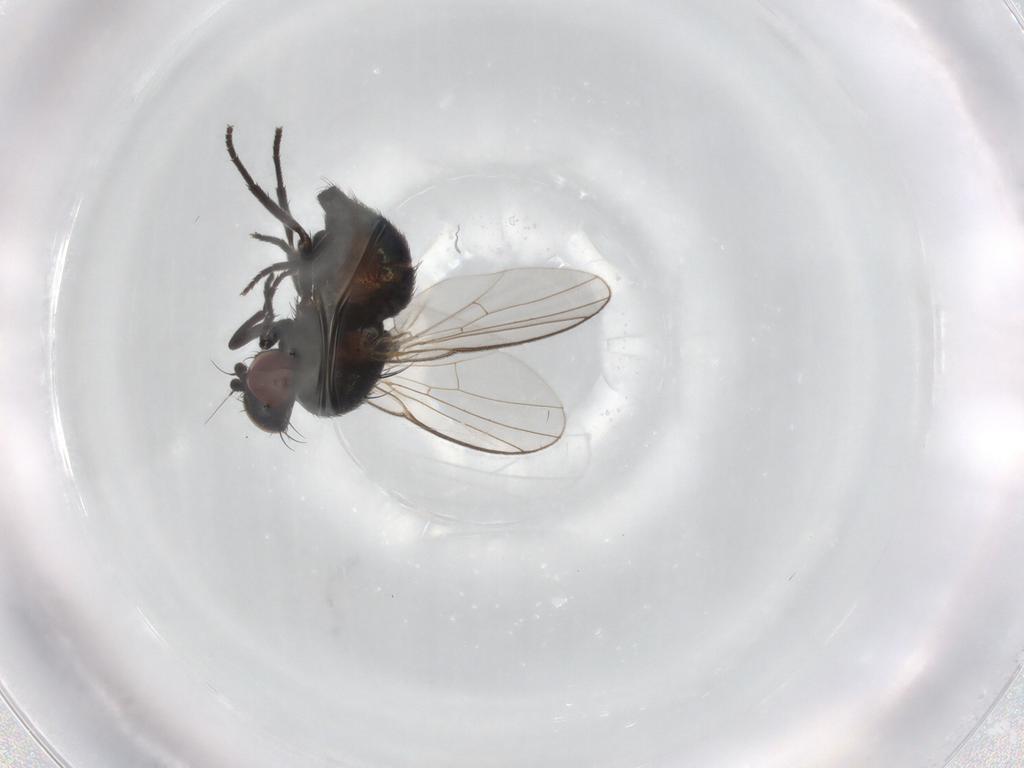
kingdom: Animalia
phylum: Arthropoda
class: Insecta
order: Diptera
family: Agromyzidae
